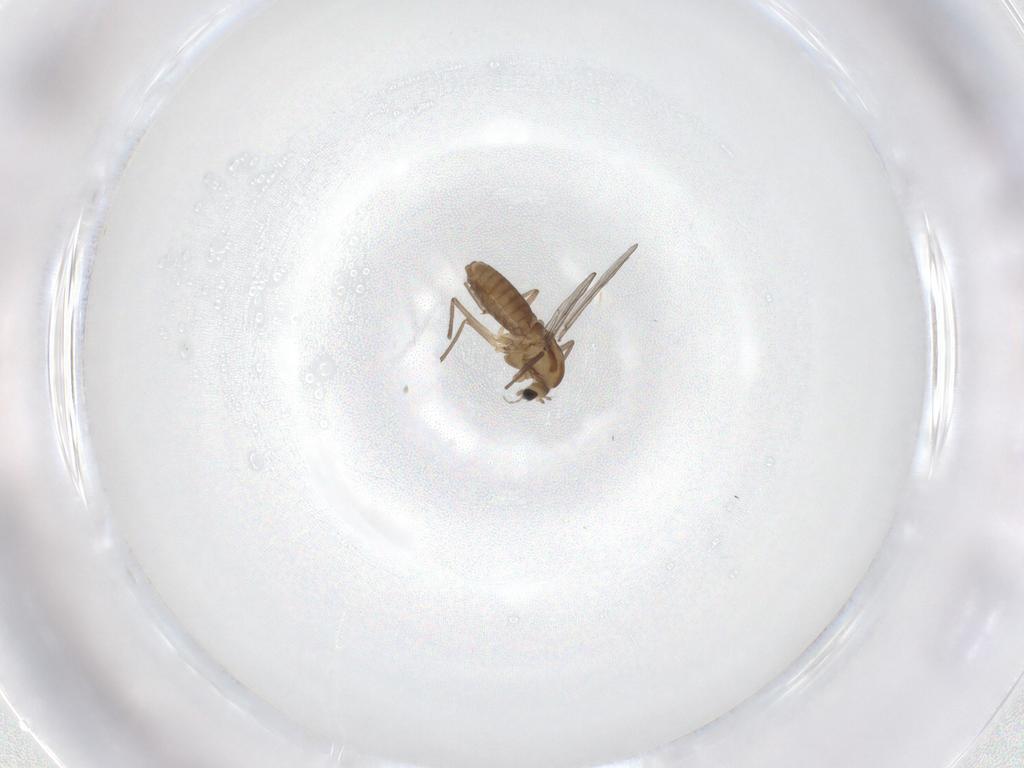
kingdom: Animalia
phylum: Arthropoda
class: Insecta
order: Diptera
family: Chironomidae
